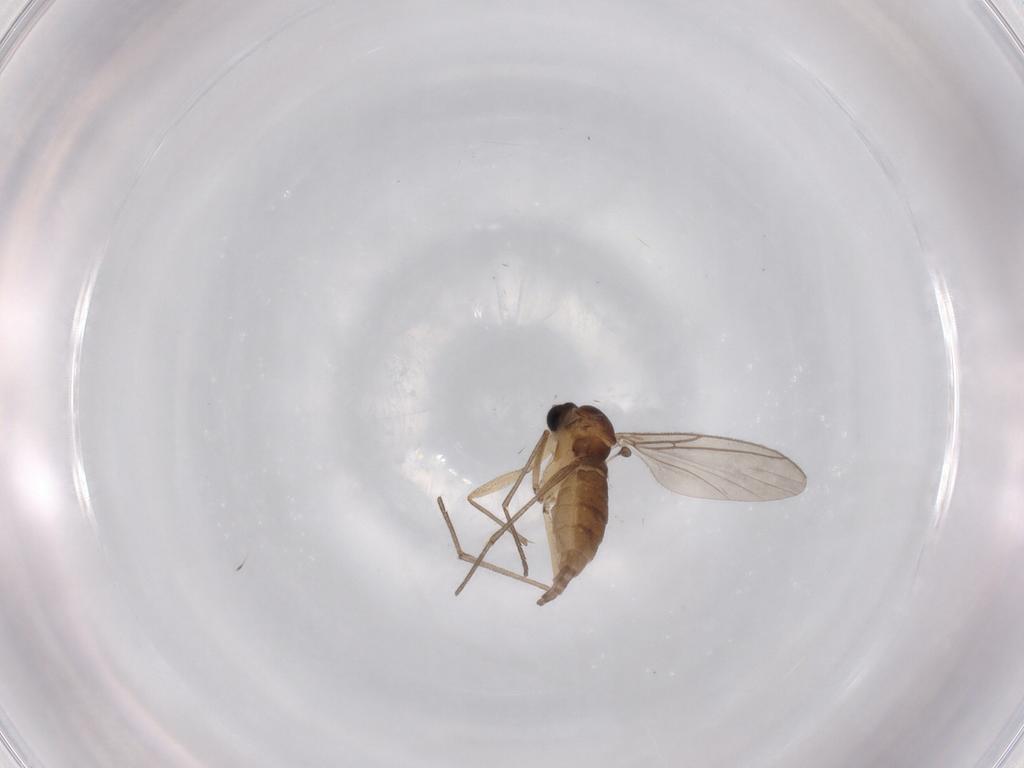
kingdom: Animalia
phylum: Arthropoda
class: Insecta
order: Diptera
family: Sciaridae
